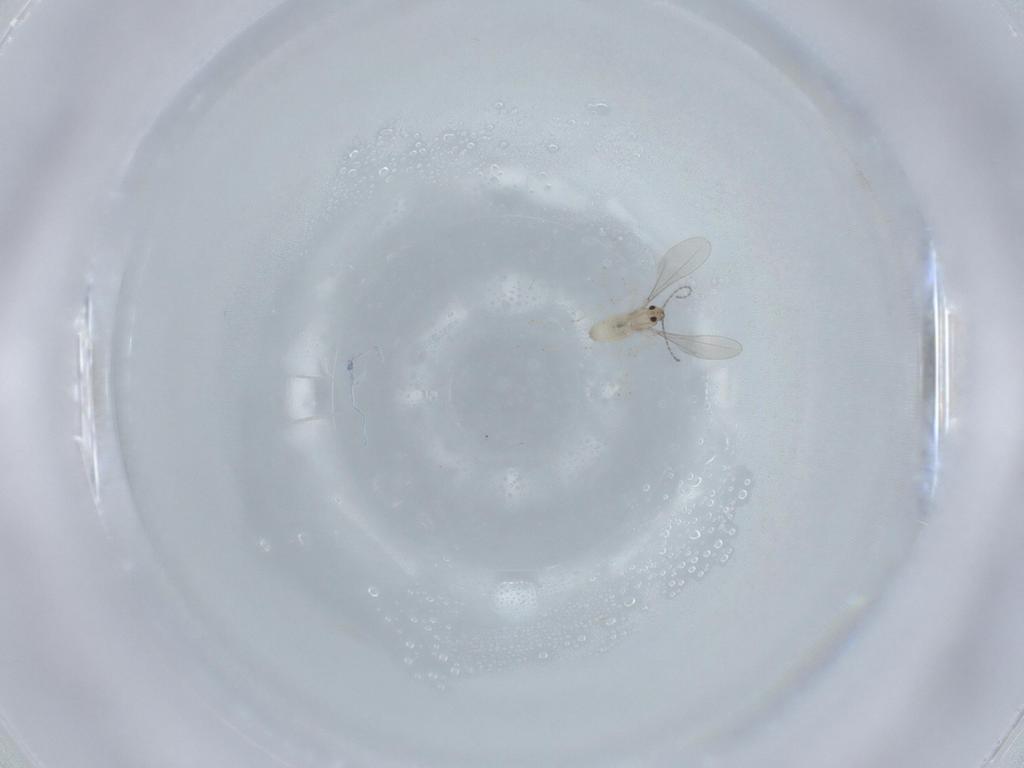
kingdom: Animalia
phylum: Arthropoda
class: Insecta
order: Diptera
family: Cecidomyiidae
